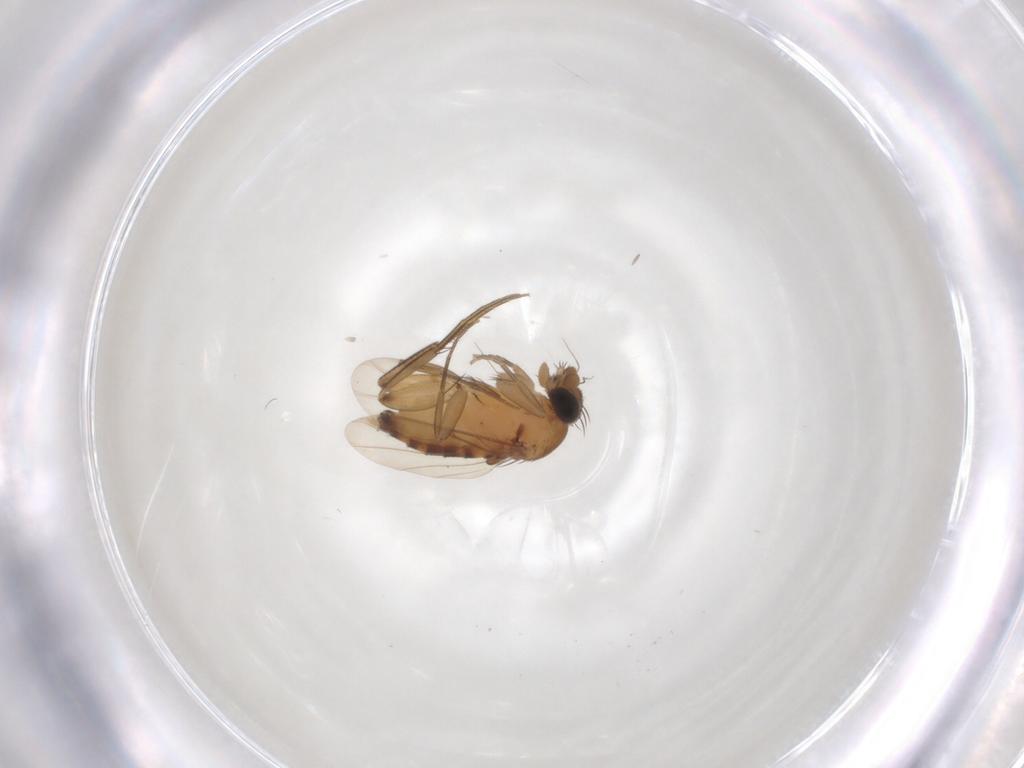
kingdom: Animalia
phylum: Arthropoda
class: Insecta
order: Diptera
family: Phoridae
